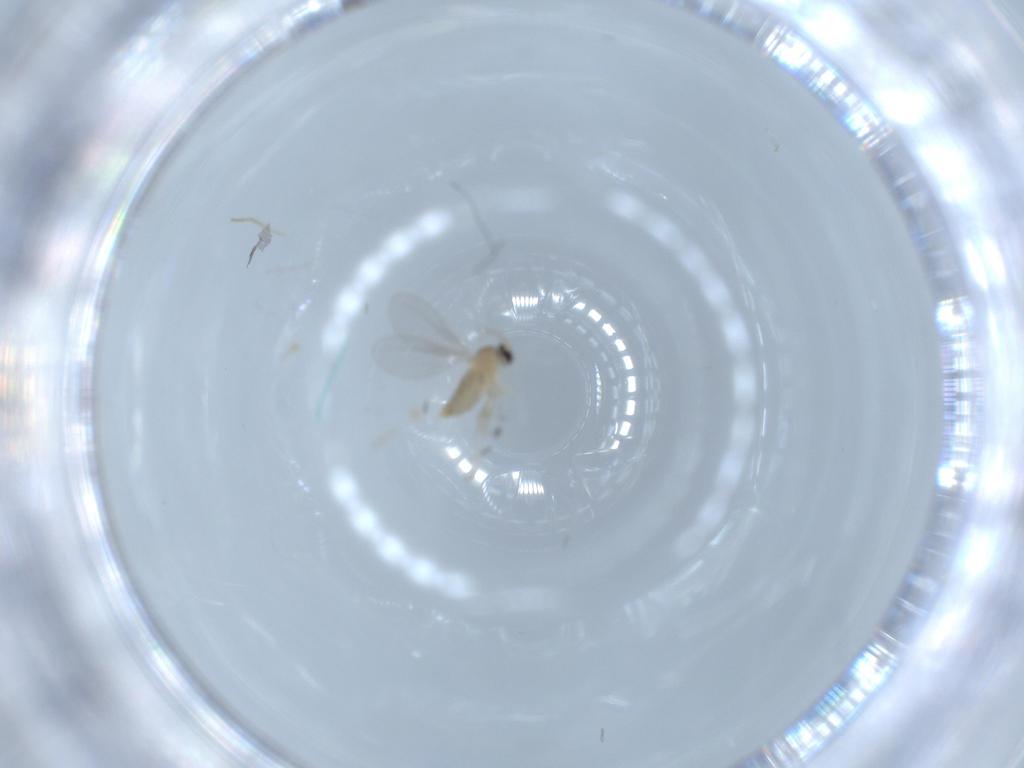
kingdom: Animalia
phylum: Arthropoda
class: Insecta
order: Diptera
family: Cecidomyiidae
